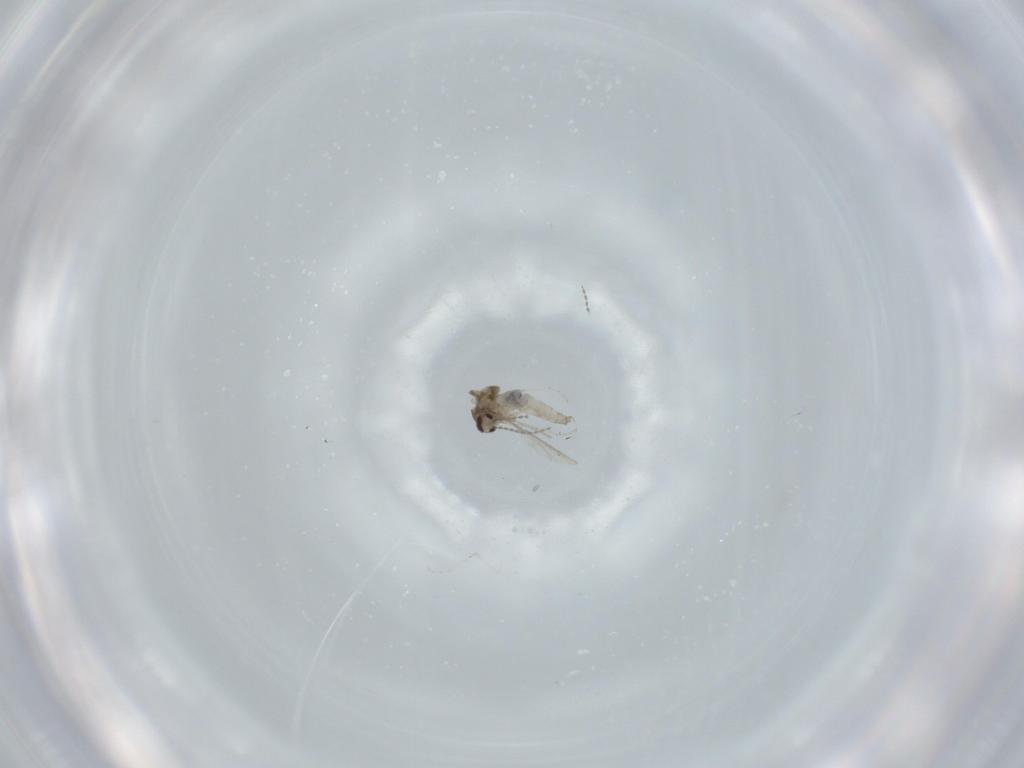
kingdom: Animalia
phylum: Arthropoda
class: Insecta
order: Diptera
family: Cecidomyiidae
